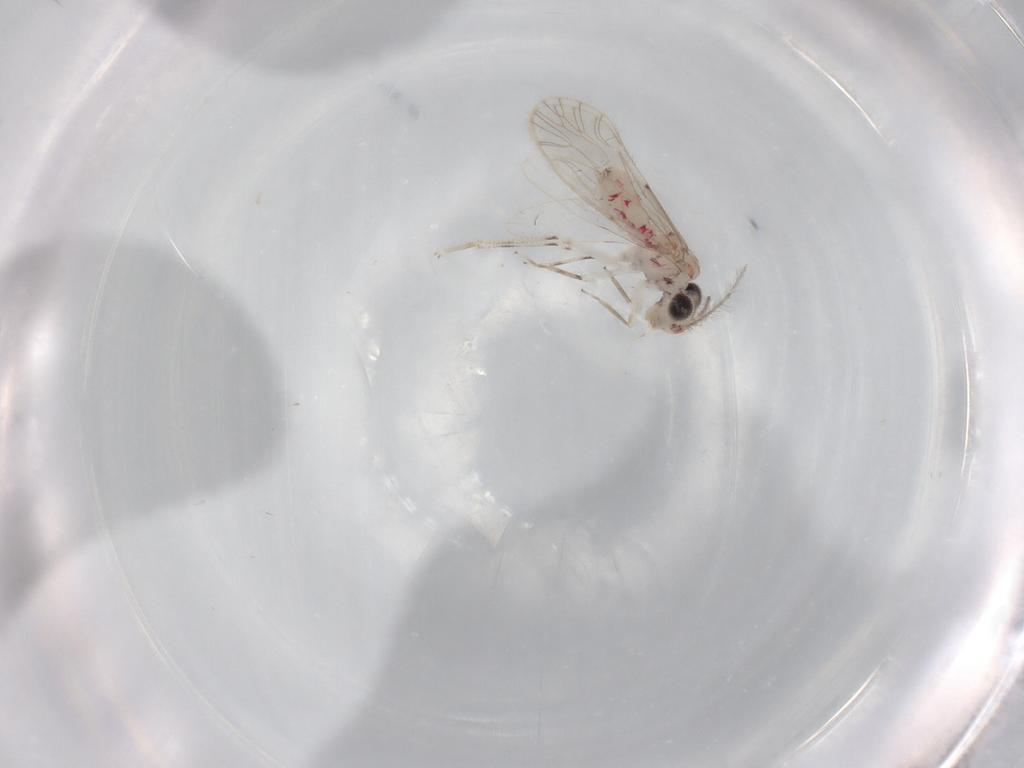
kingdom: Animalia
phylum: Arthropoda
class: Insecta
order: Psocodea
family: Caeciliusidae
